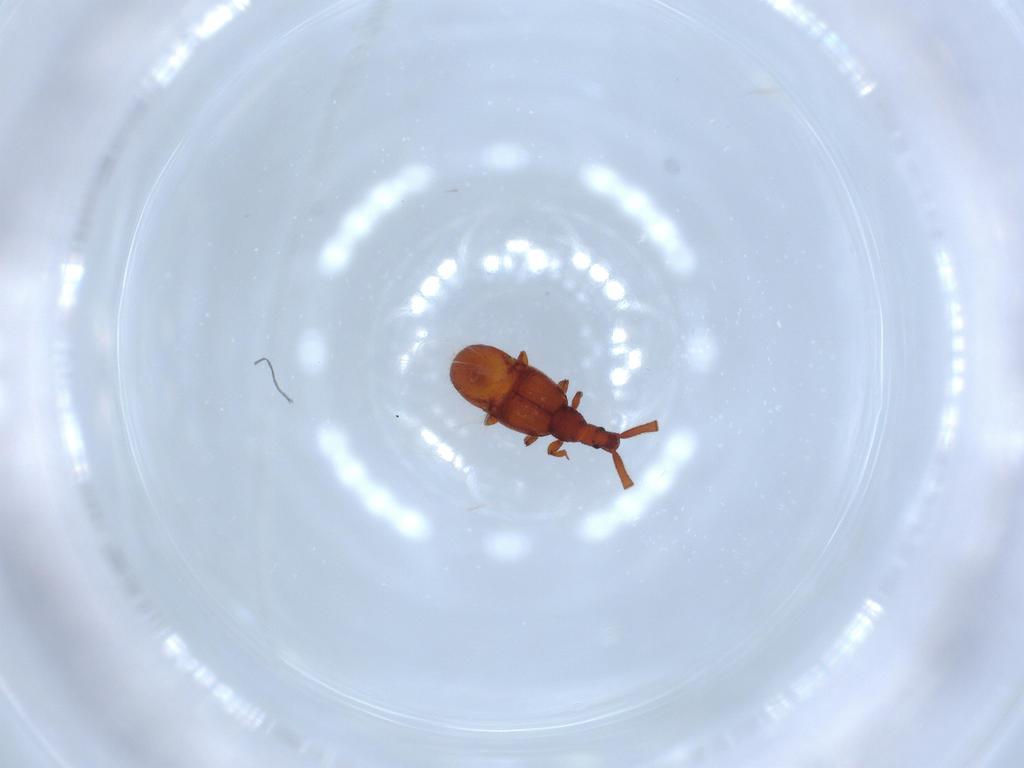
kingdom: Animalia
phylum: Arthropoda
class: Insecta
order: Coleoptera
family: Staphylinidae
